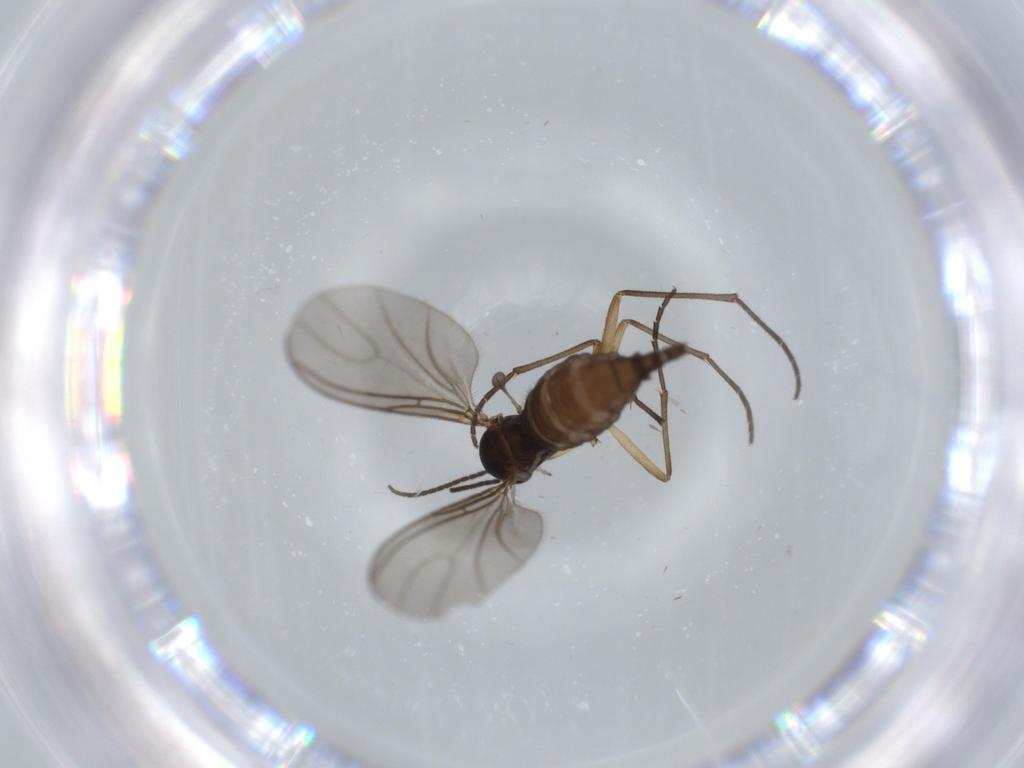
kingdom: Animalia
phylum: Arthropoda
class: Insecta
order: Diptera
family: Sciaridae
